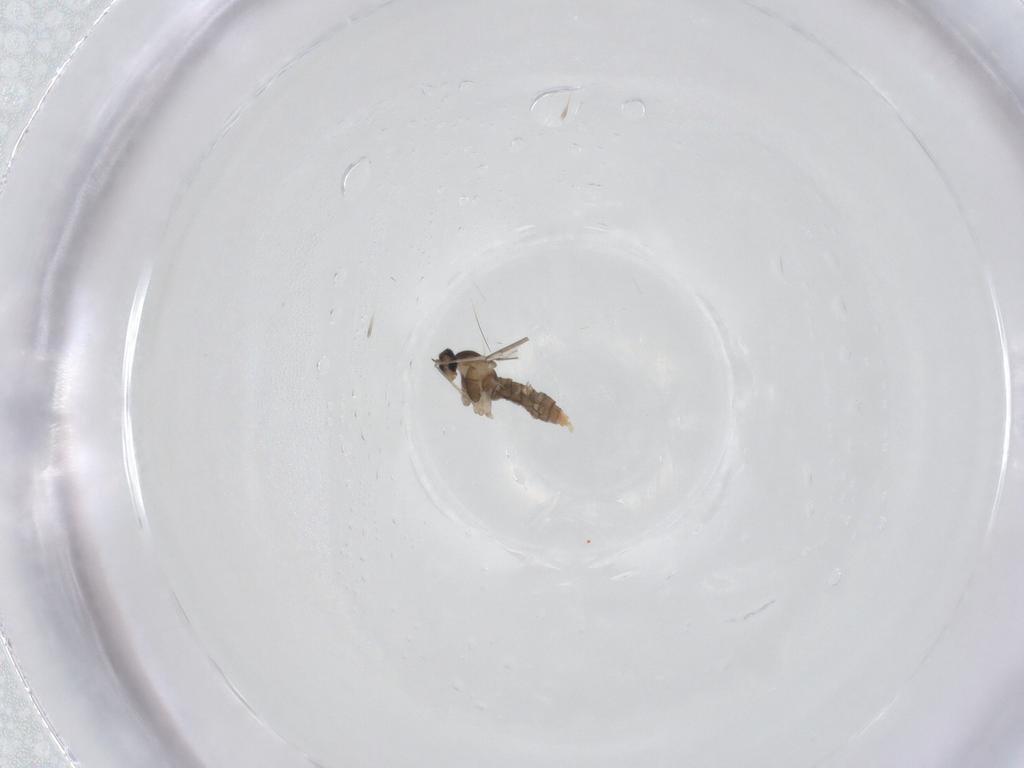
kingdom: Animalia
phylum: Arthropoda
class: Insecta
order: Diptera
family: Cecidomyiidae
